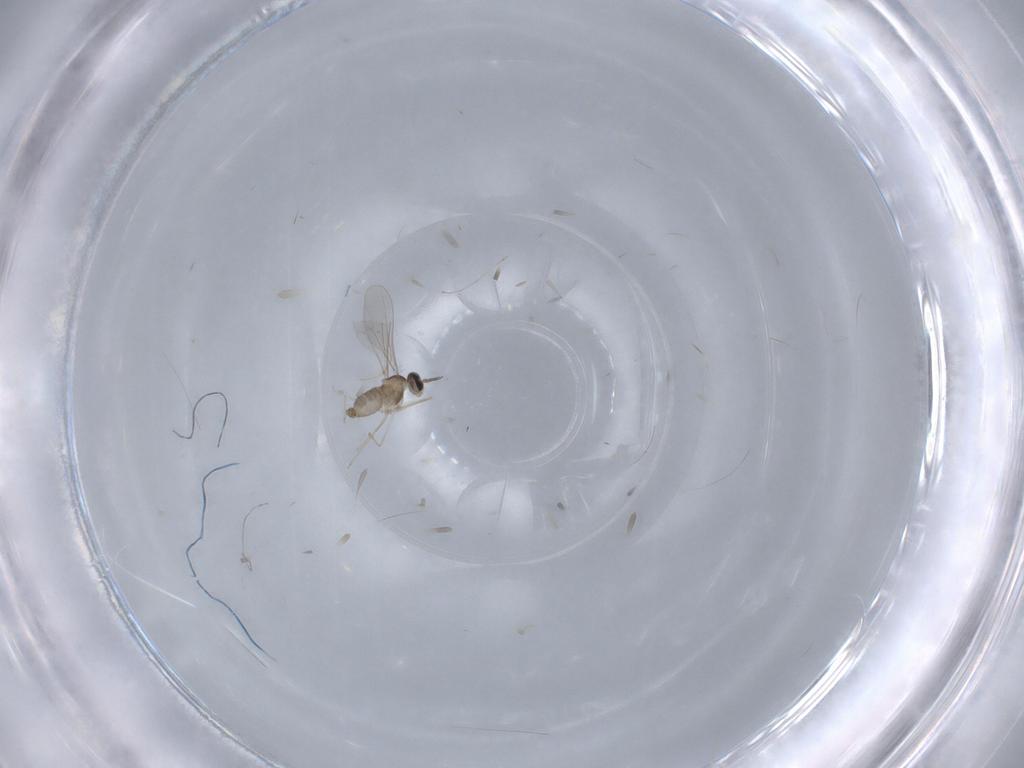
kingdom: Animalia
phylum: Arthropoda
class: Insecta
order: Diptera
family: Cecidomyiidae
